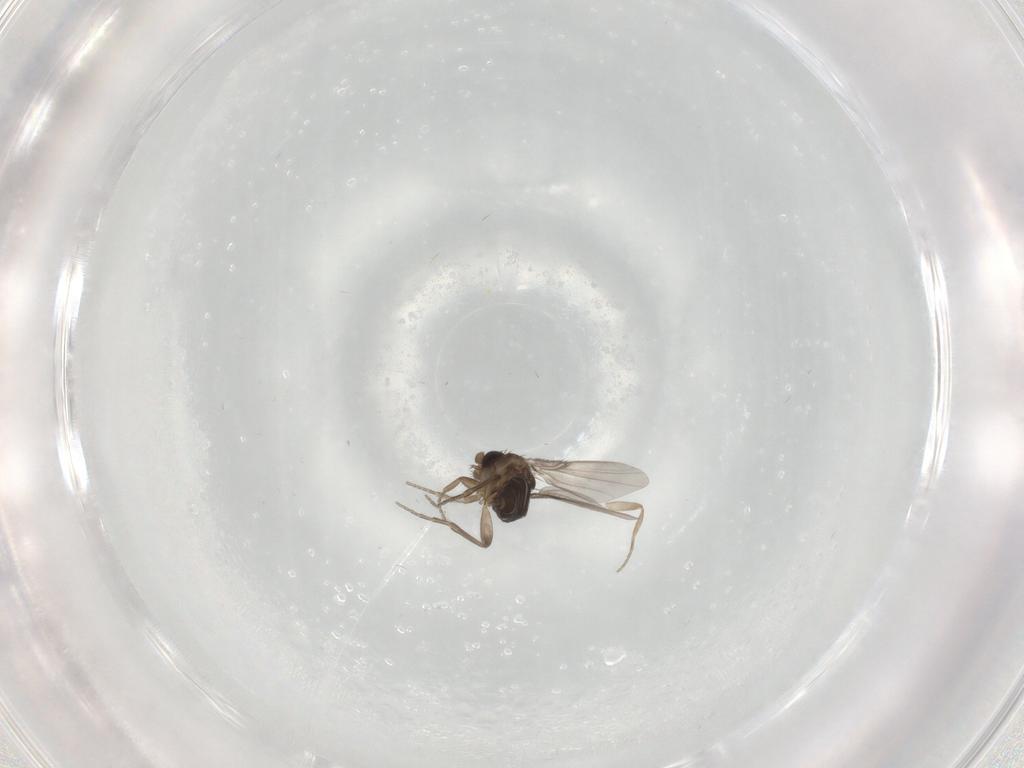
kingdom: Animalia
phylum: Arthropoda
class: Insecta
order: Diptera
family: Phoridae
